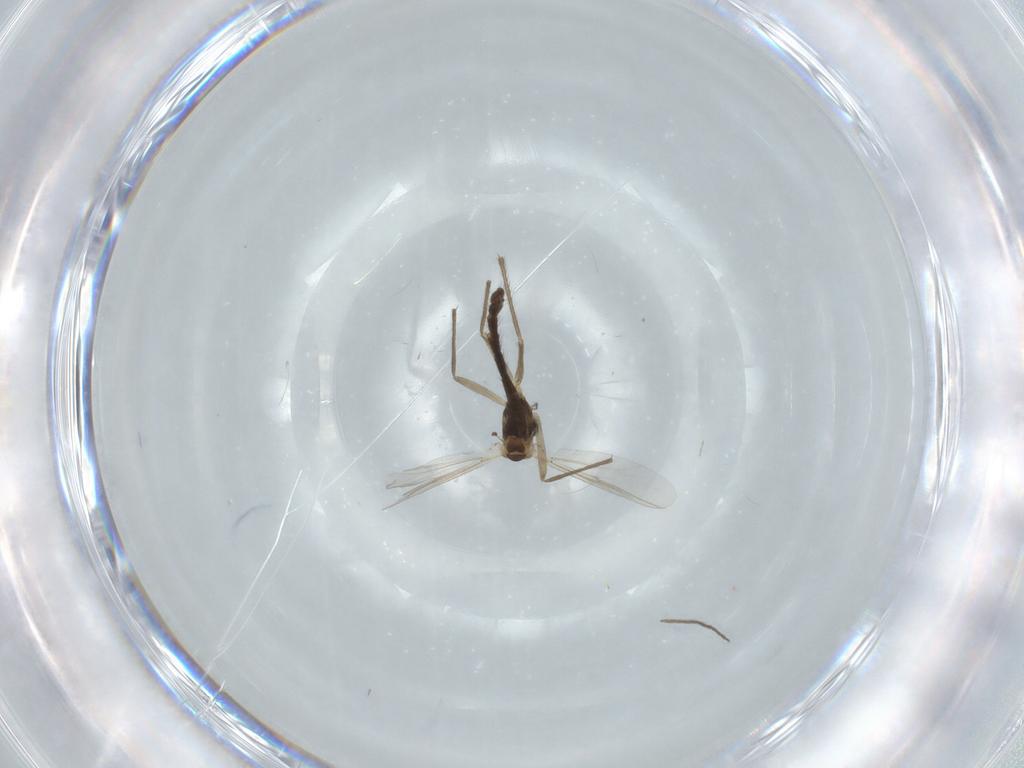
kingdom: Animalia
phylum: Arthropoda
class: Insecta
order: Diptera
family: Chironomidae
